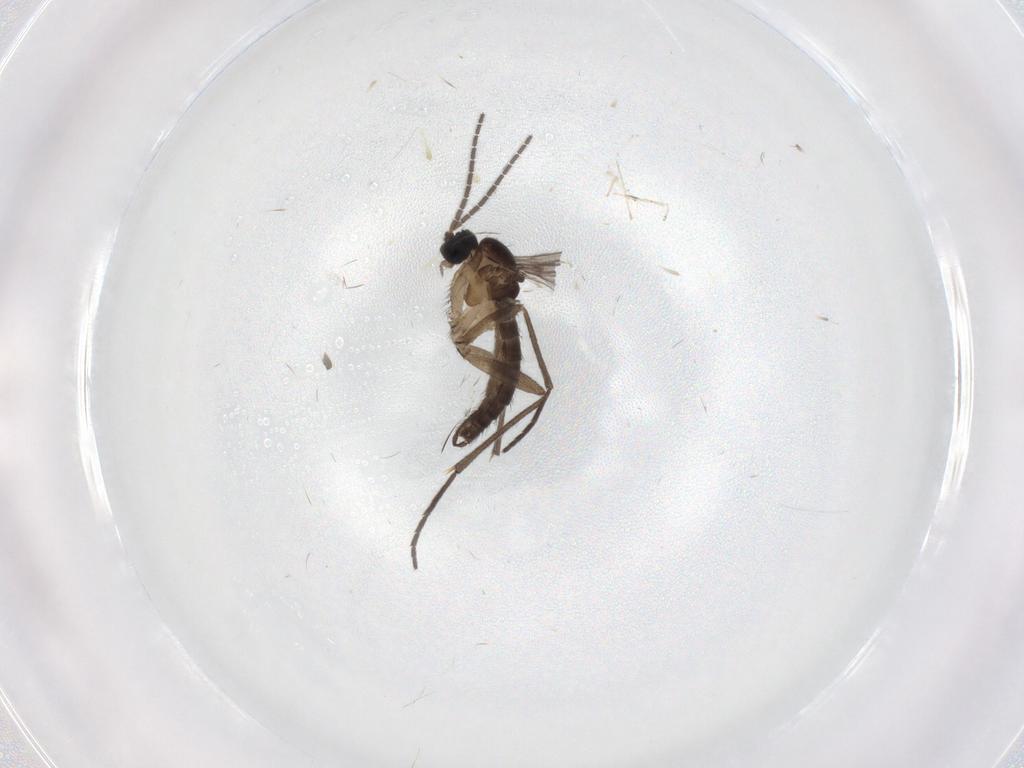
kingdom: Animalia
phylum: Arthropoda
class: Insecta
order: Diptera
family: Chironomidae
